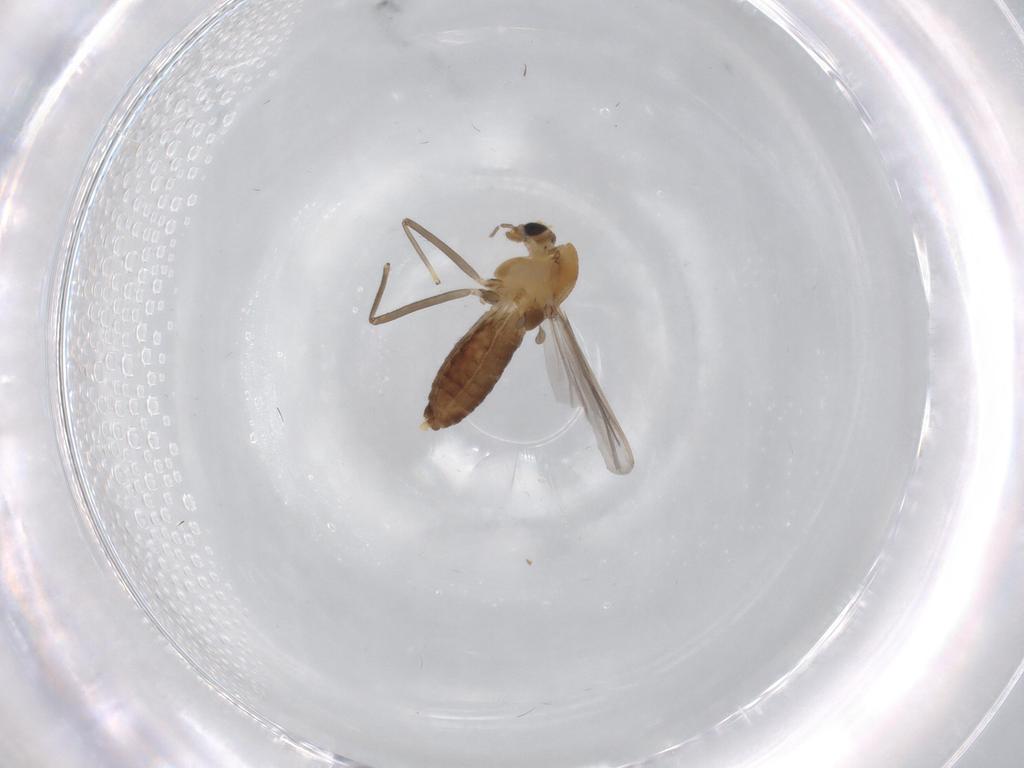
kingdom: Animalia
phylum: Arthropoda
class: Insecta
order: Diptera
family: Chironomidae
